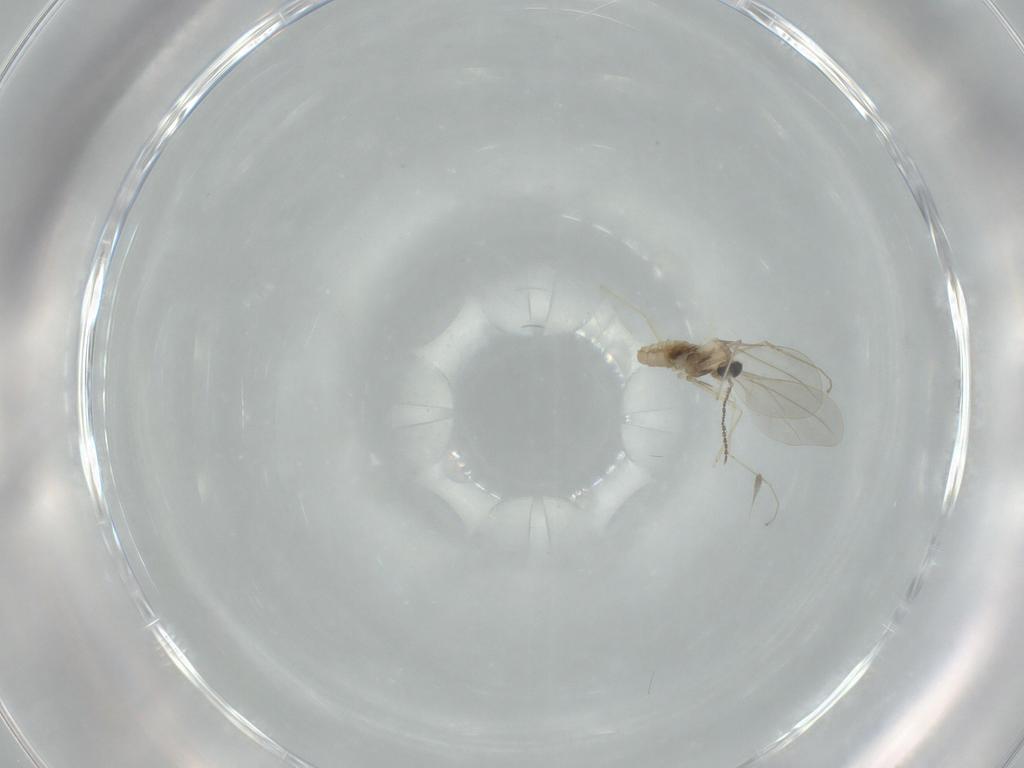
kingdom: Animalia
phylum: Arthropoda
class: Insecta
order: Diptera
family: Cecidomyiidae
